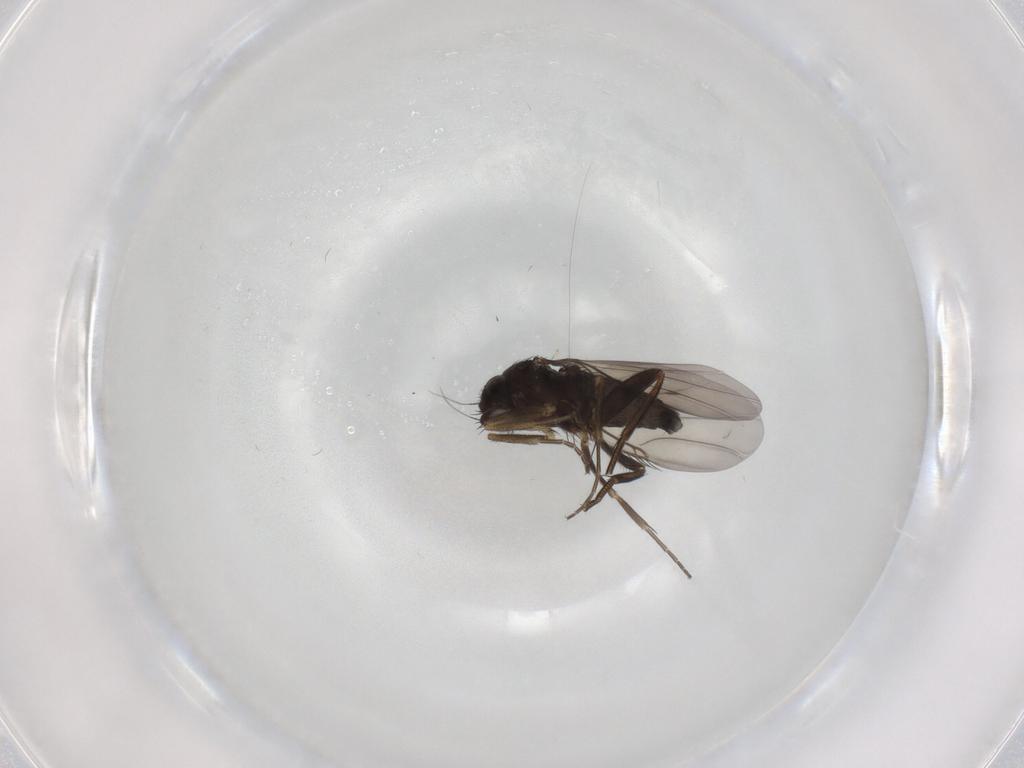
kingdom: Animalia
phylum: Arthropoda
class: Insecta
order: Diptera
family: Phoridae
